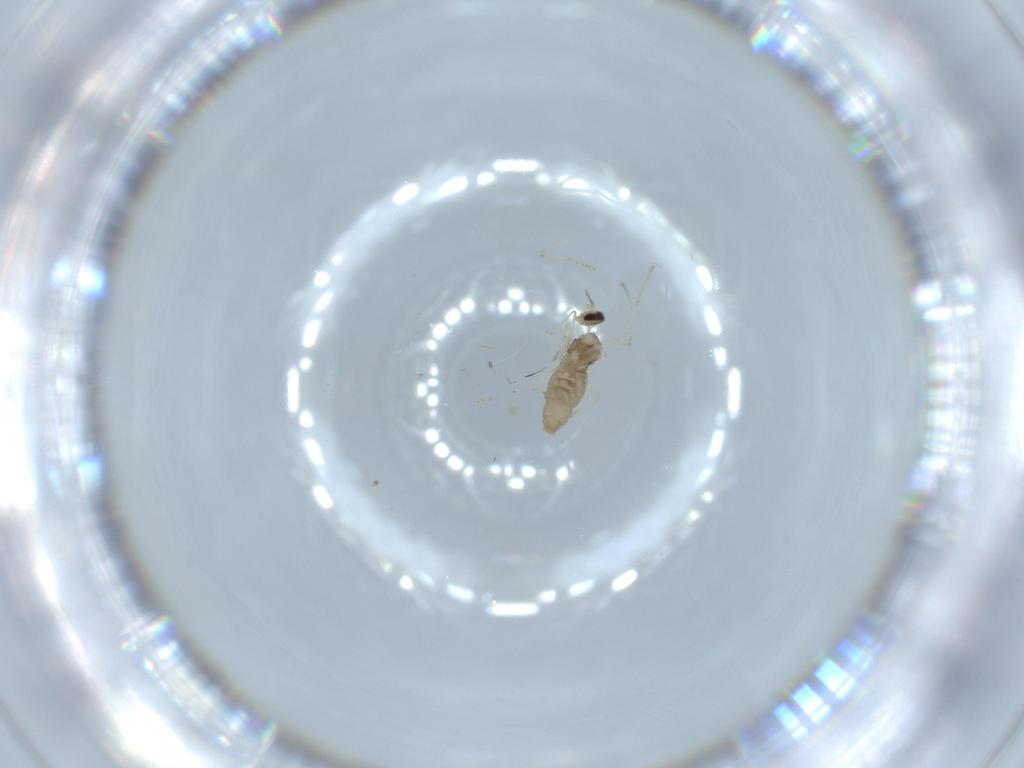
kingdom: Animalia
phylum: Arthropoda
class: Insecta
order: Diptera
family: Cecidomyiidae
